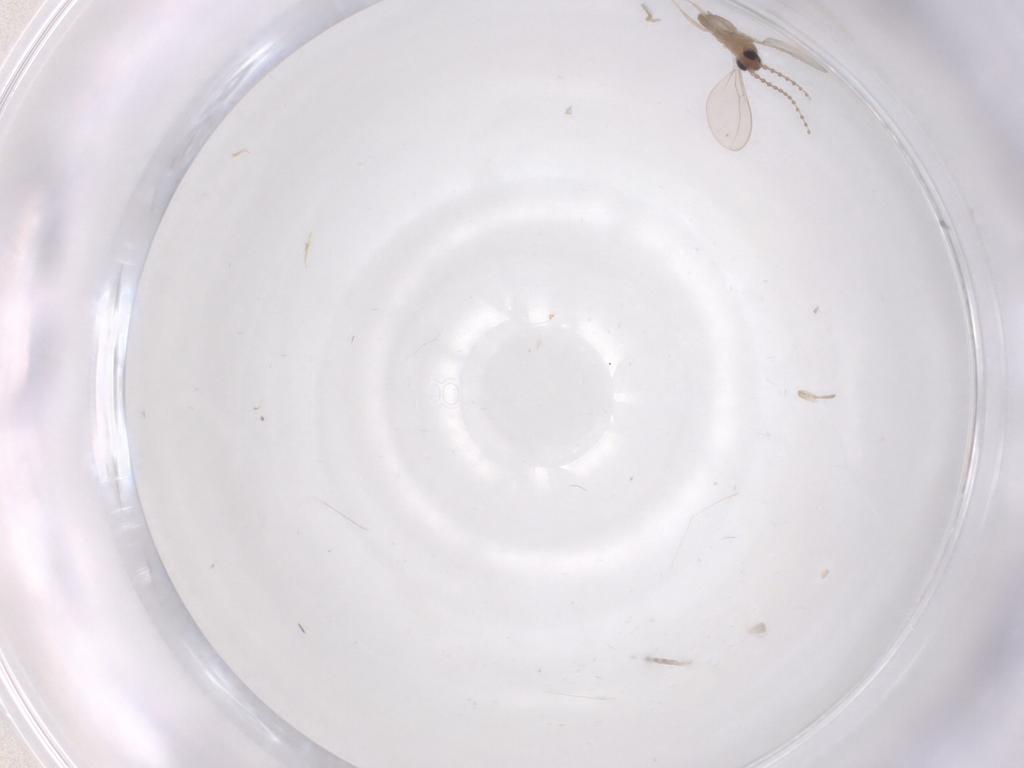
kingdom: Animalia
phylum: Arthropoda
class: Insecta
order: Diptera
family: Cecidomyiidae
